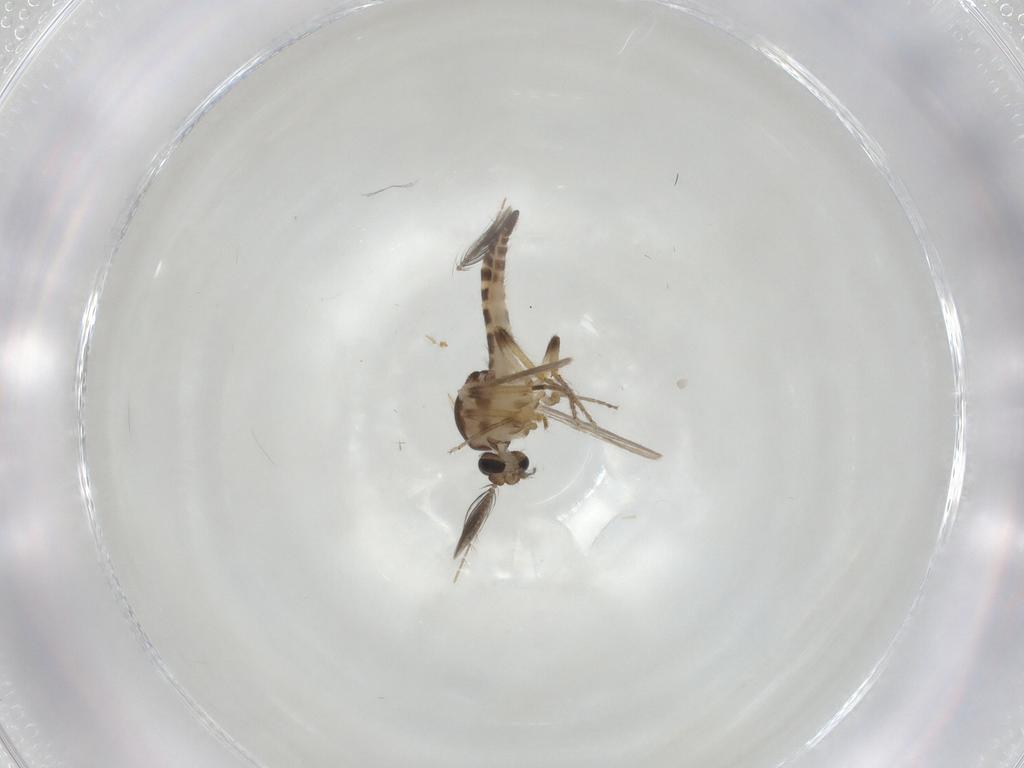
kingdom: Animalia
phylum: Arthropoda
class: Insecta
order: Diptera
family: Ceratopogonidae
